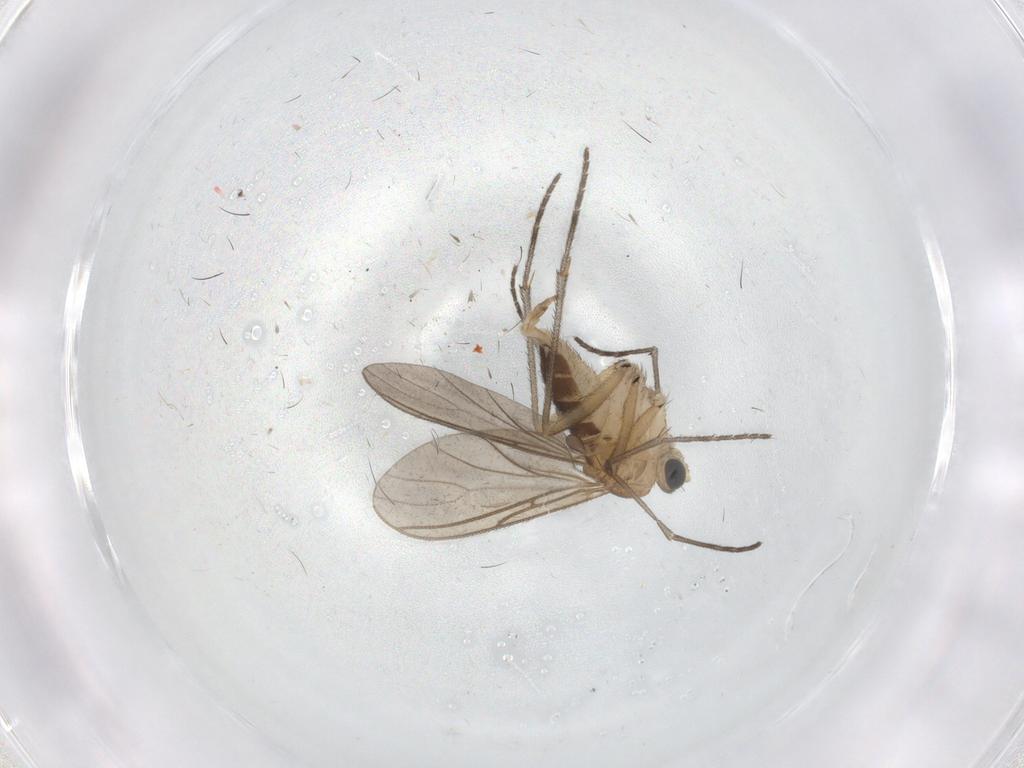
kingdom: Animalia
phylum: Arthropoda
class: Insecta
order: Diptera
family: Sciaridae
